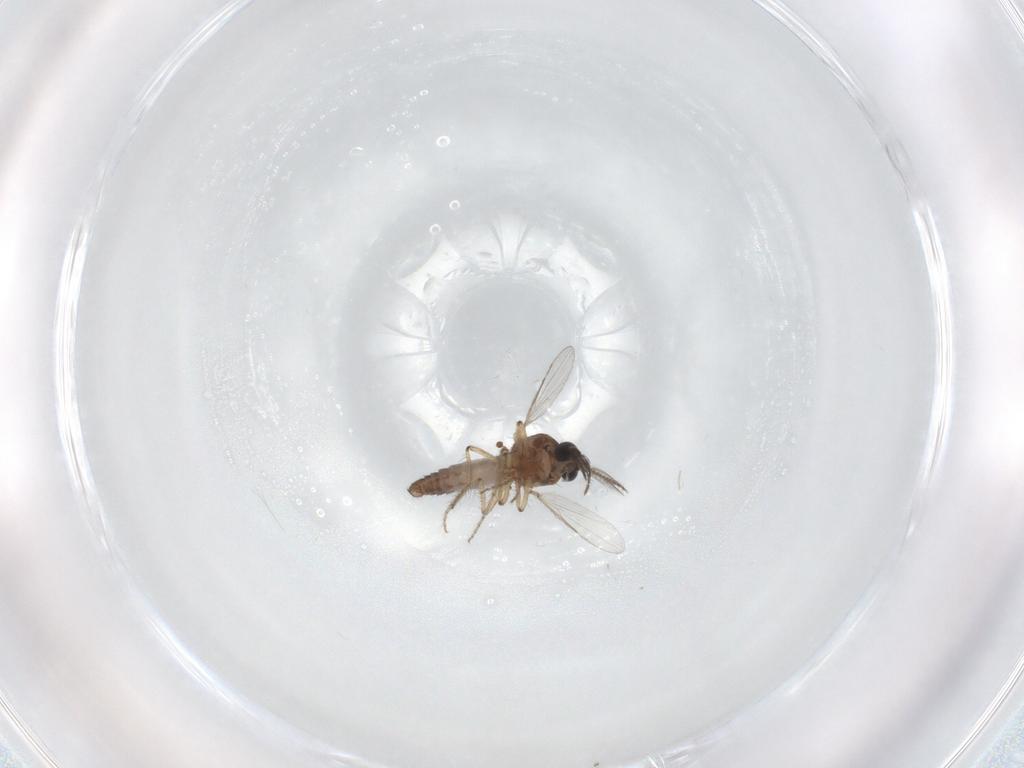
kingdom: Animalia
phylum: Arthropoda
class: Insecta
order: Diptera
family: Ceratopogonidae
